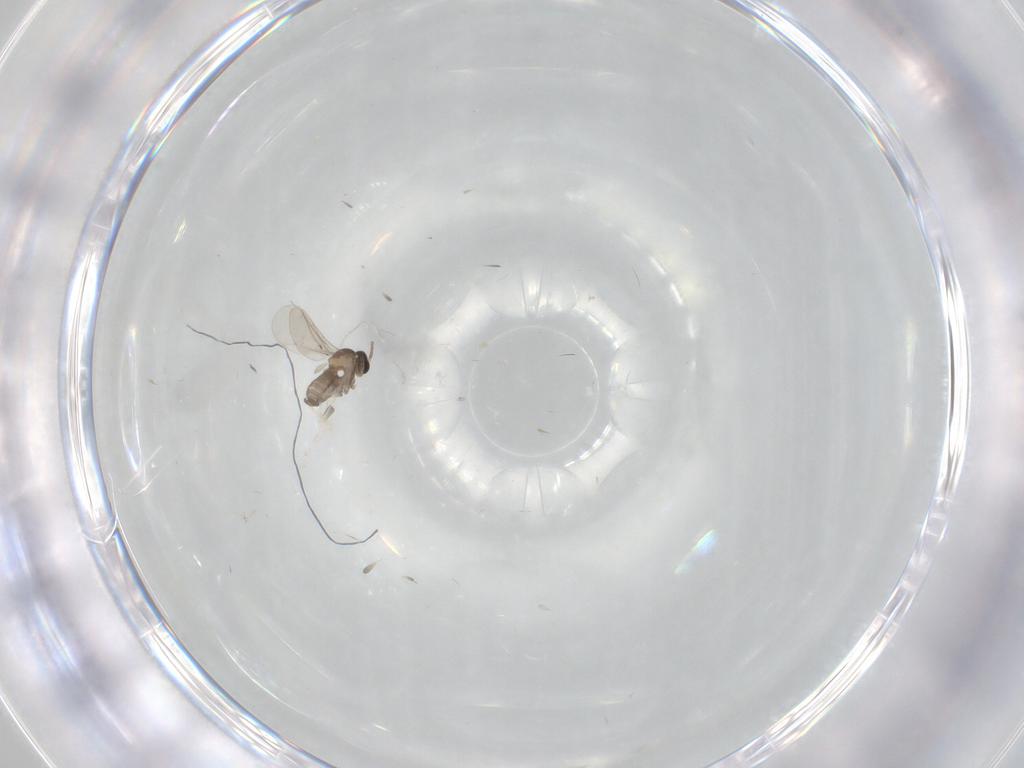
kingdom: Animalia
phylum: Arthropoda
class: Insecta
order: Diptera
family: Cecidomyiidae
